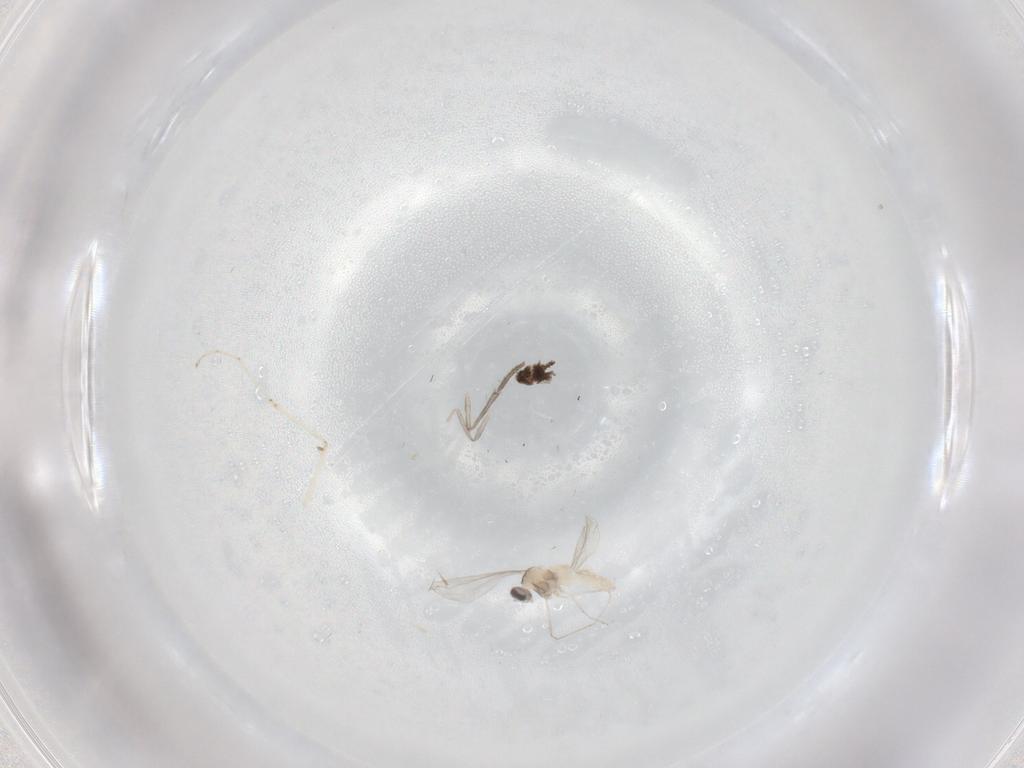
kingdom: Animalia
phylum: Arthropoda
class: Insecta
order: Diptera
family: Cecidomyiidae
